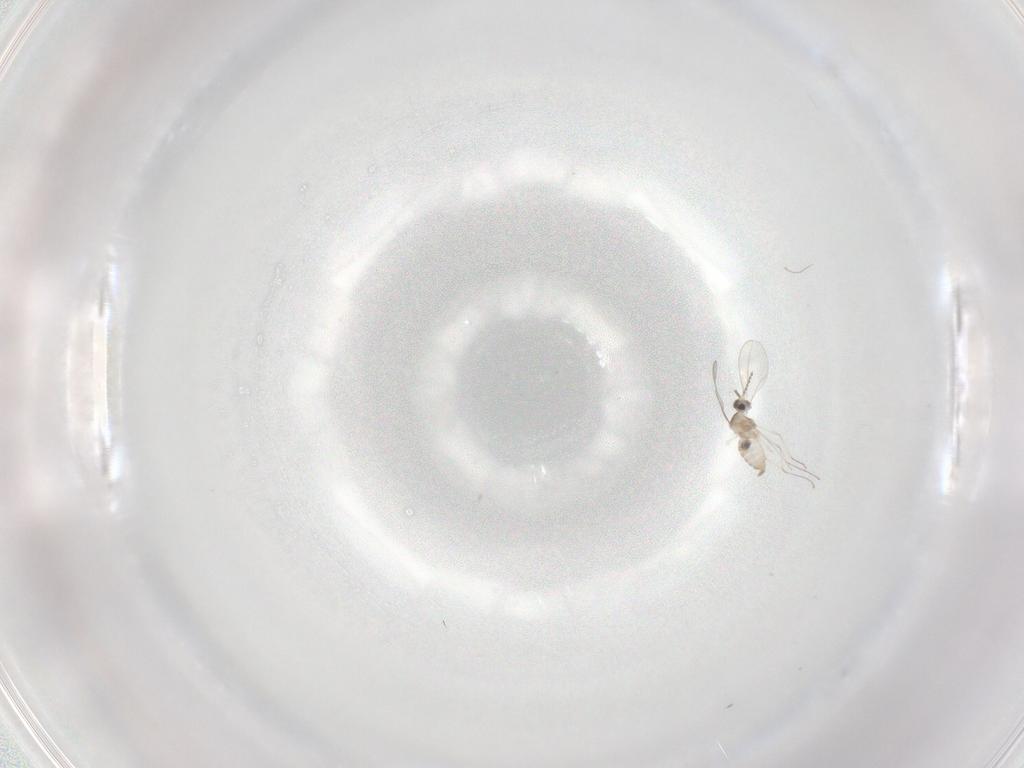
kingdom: Animalia
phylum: Arthropoda
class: Insecta
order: Diptera
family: Cecidomyiidae
